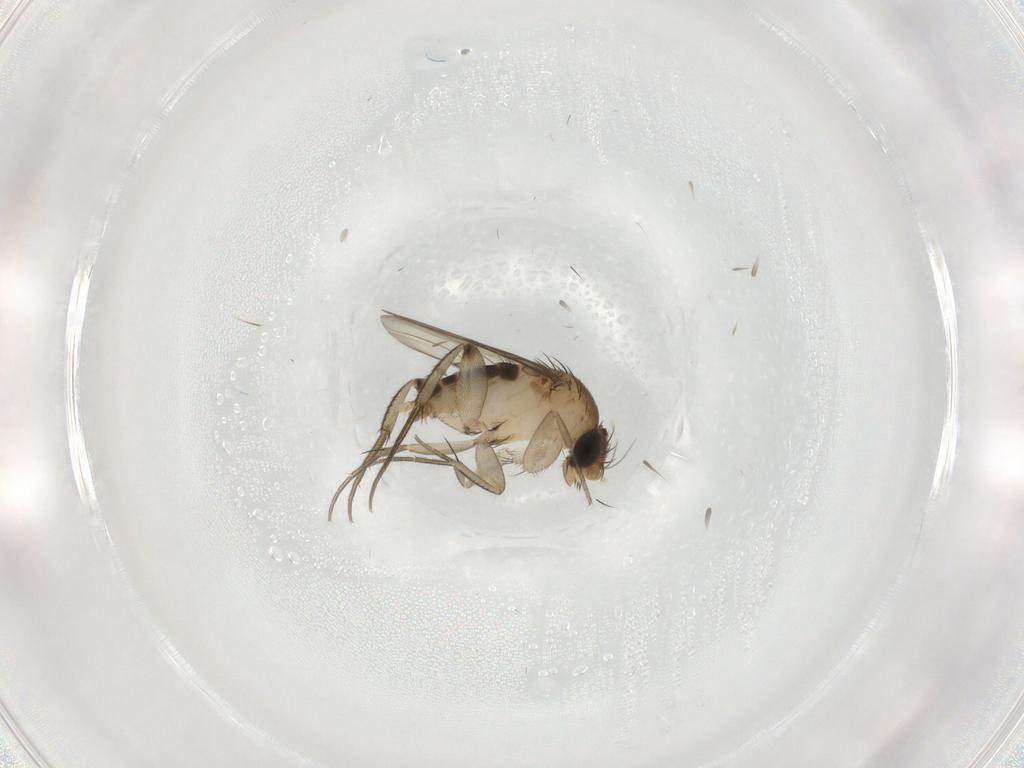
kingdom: Animalia
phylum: Arthropoda
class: Insecta
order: Diptera
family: Phoridae
